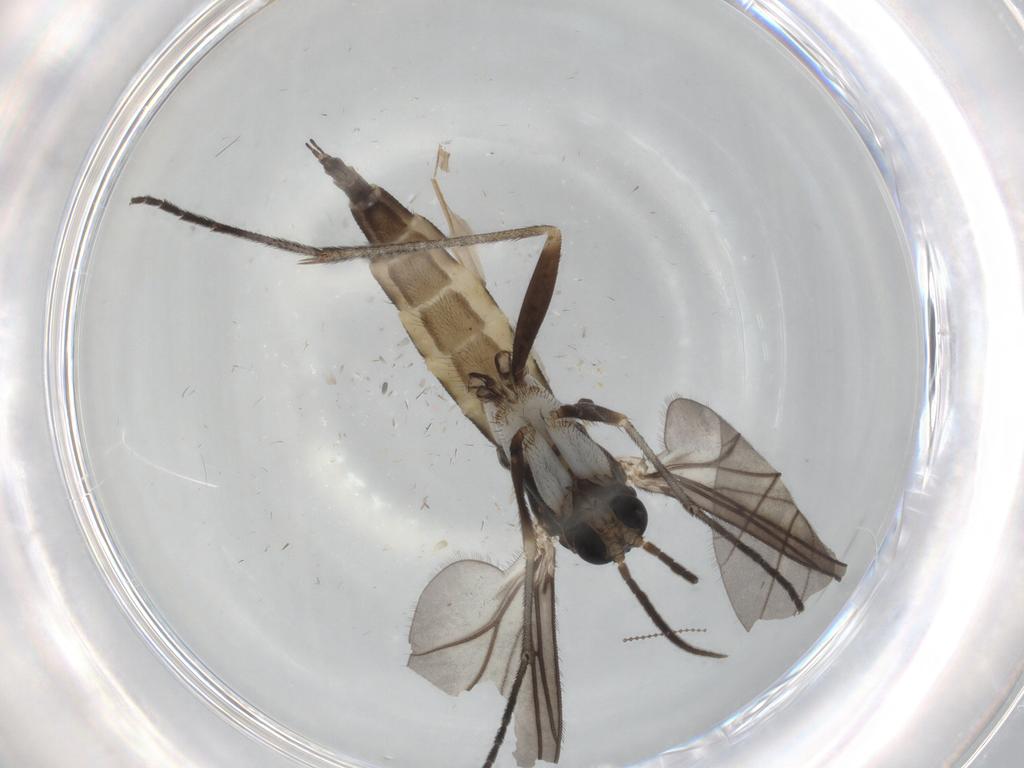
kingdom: Animalia
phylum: Arthropoda
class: Insecta
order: Diptera
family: Sciaridae
